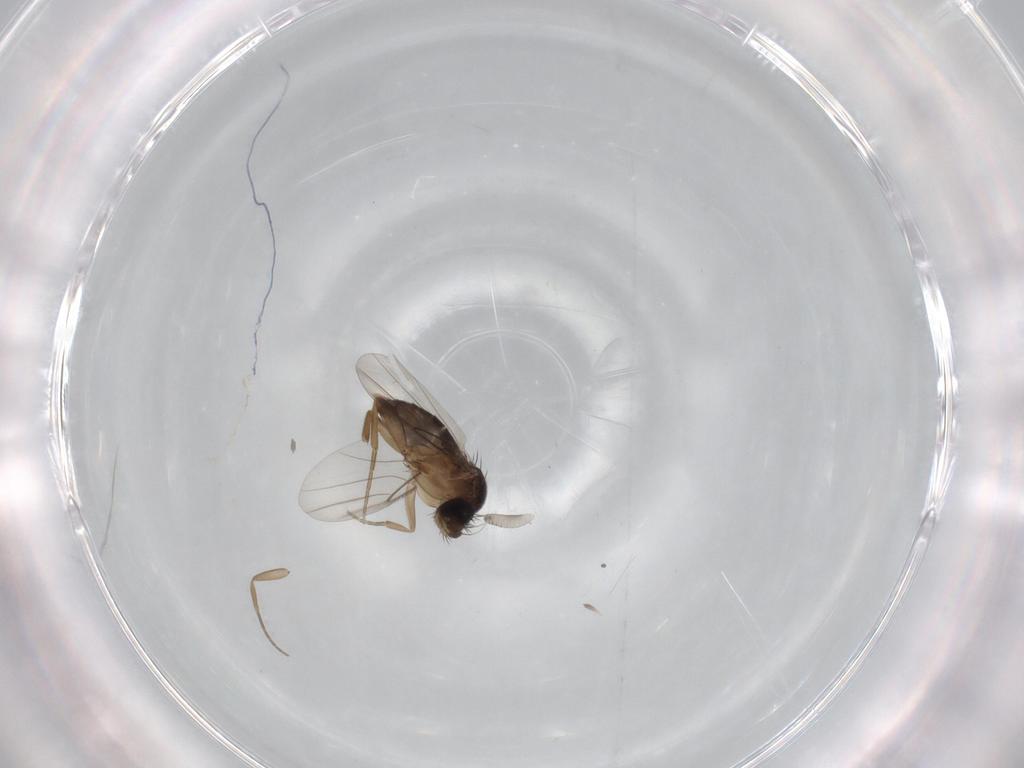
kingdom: Animalia
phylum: Arthropoda
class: Insecta
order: Diptera
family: Phoridae
